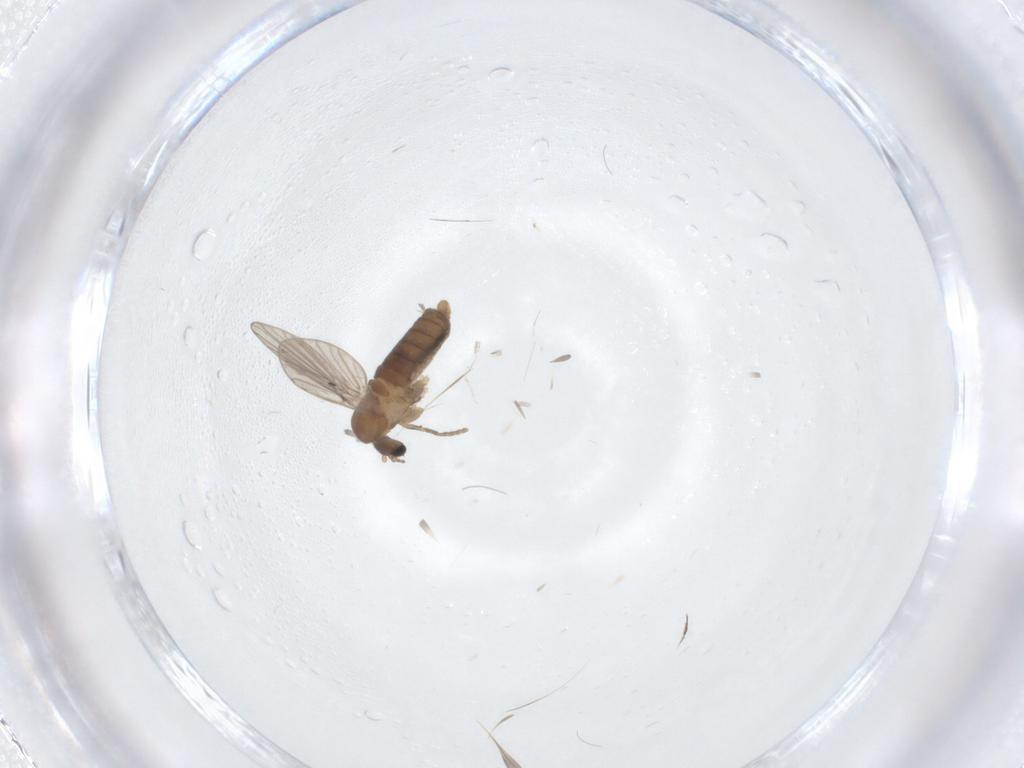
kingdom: Animalia
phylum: Arthropoda
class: Insecta
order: Diptera
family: Chironomidae
